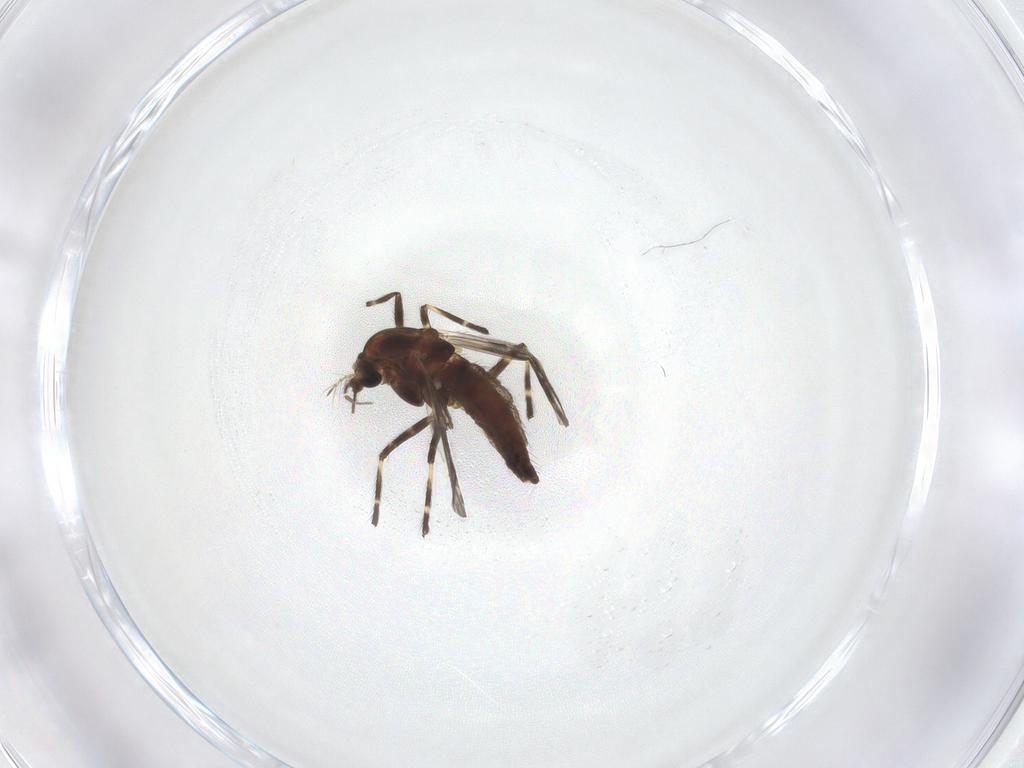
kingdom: Animalia
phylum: Arthropoda
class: Insecta
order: Diptera
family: Chironomidae
